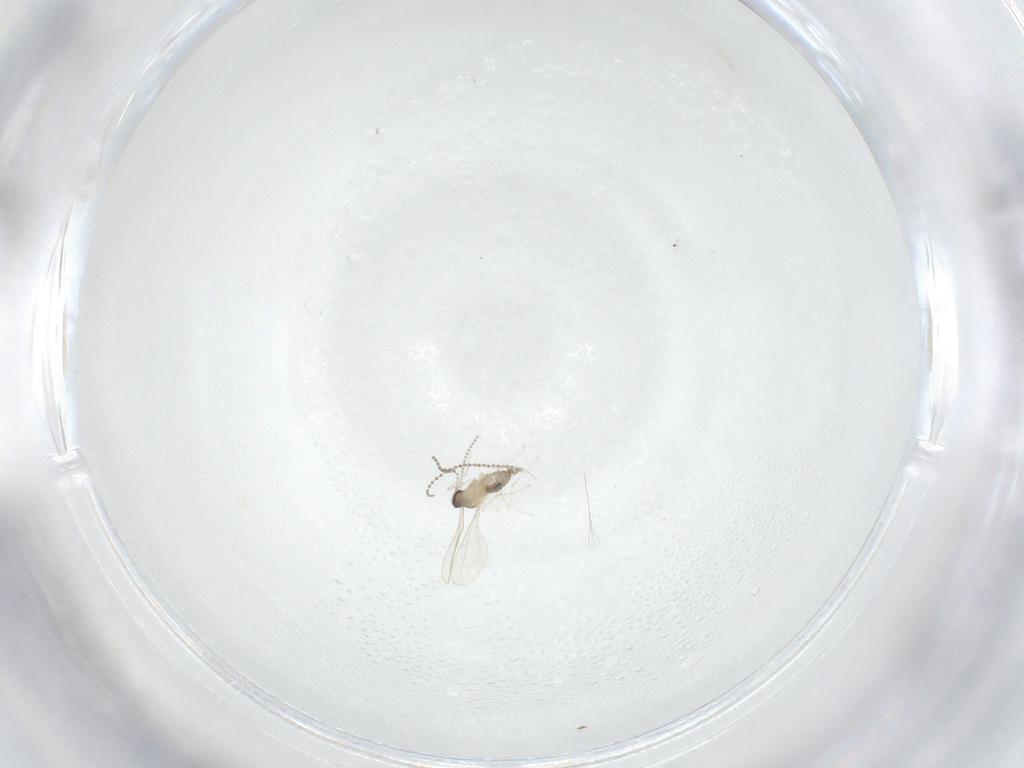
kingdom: Animalia
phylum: Arthropoda
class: Insecta
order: Diptera
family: Cecidomyiidae
